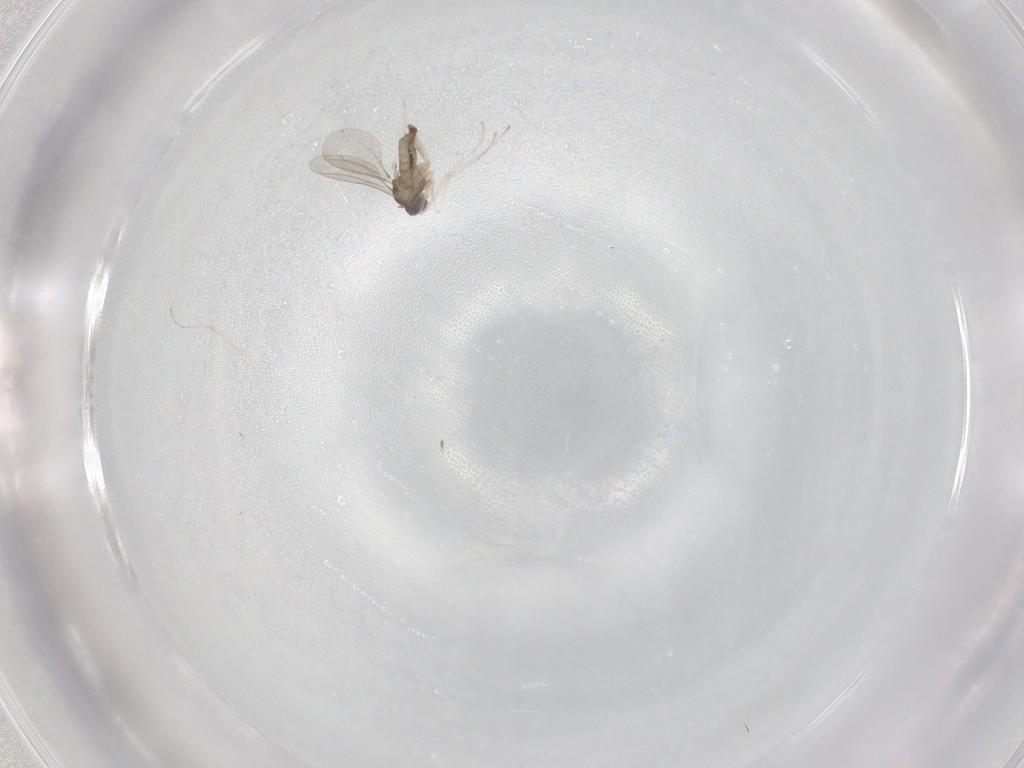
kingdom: Animalia
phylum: Arthropoda
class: Insecta
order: Diptera
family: Cecidomyiidae
